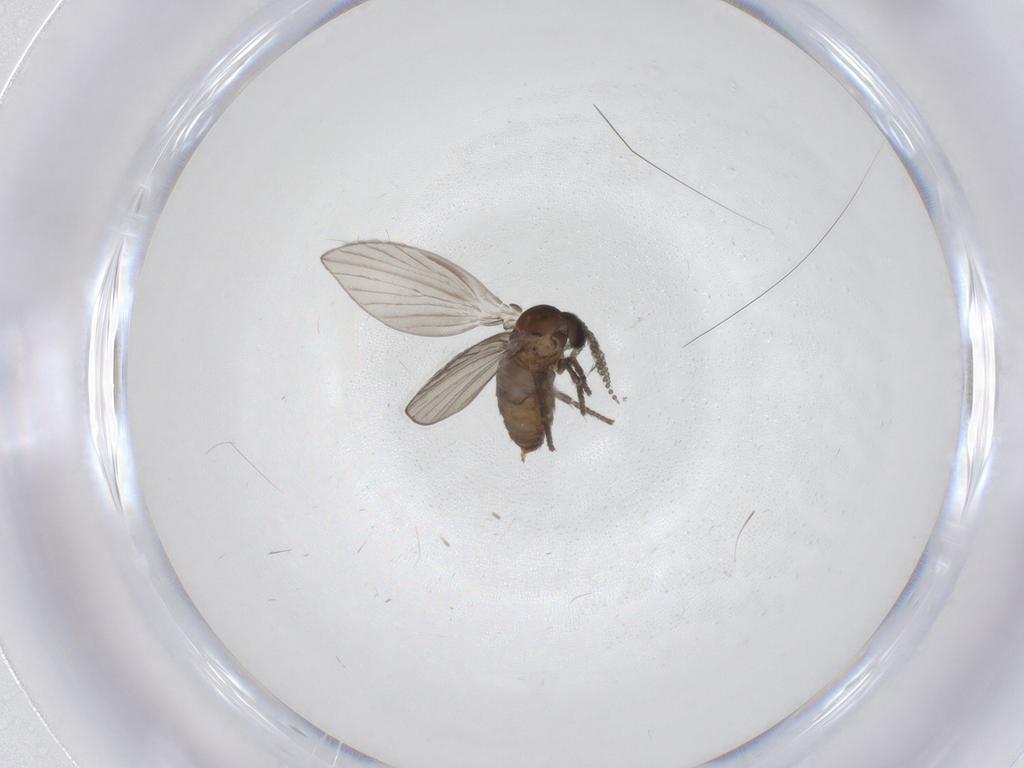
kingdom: Animalia
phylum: Arthropoda
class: Insecta
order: Diptera
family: Psychodidae
